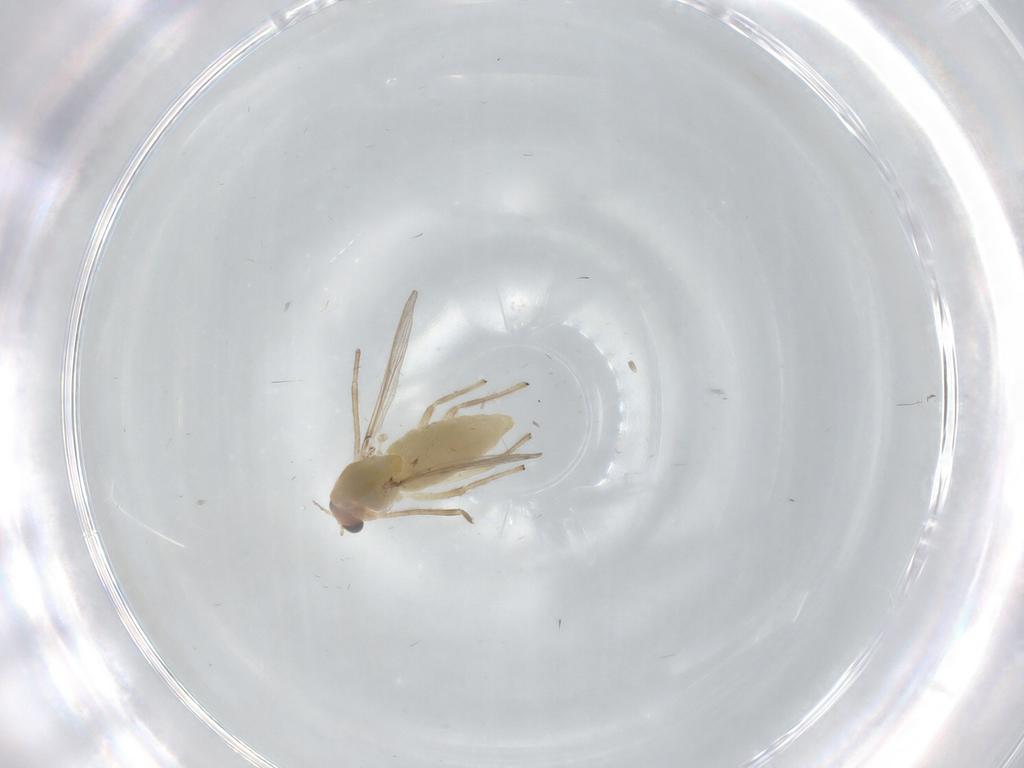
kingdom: Animalia
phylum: Arthropoda
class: Insecta
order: Diptera
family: Chironomidae
